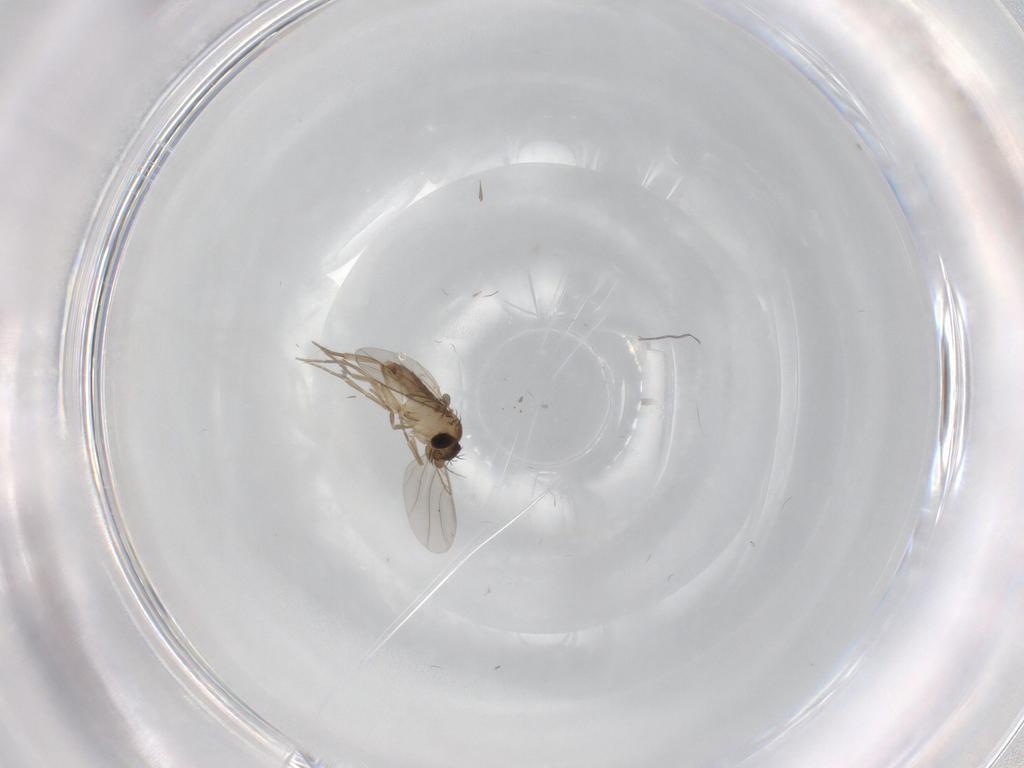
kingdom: Animalia
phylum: Arthropoda
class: Insecta
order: Diptera
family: Phoridae
